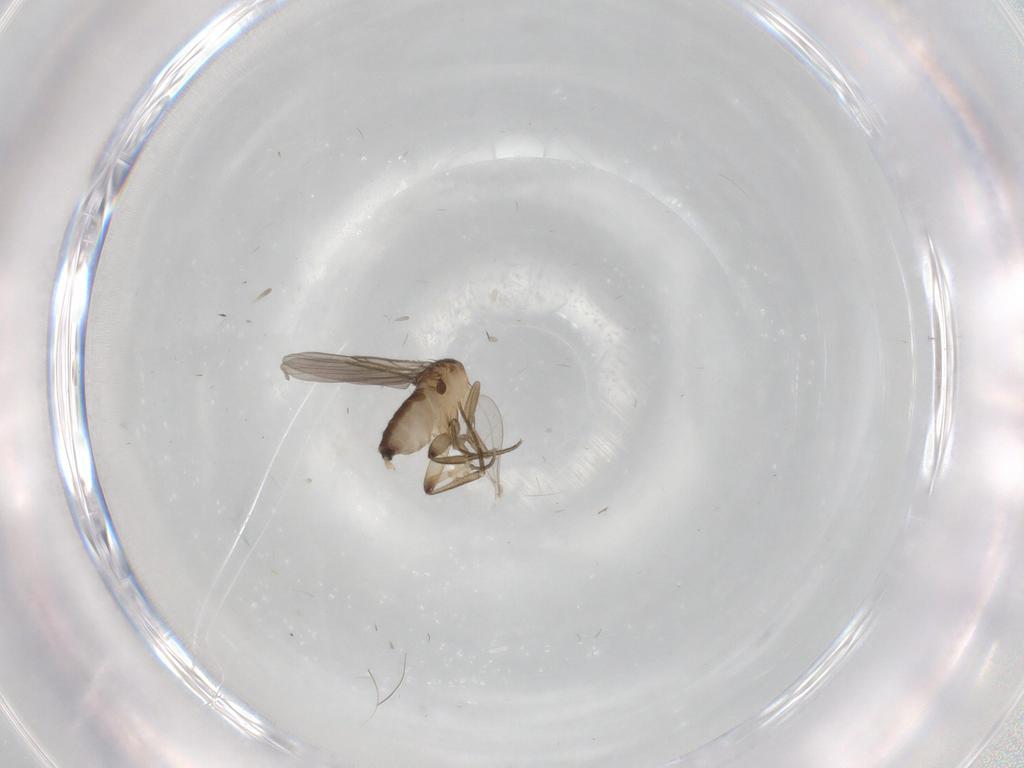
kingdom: Animalia
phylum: Arthropoda
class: Insecta
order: Diptera
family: Phoridae
